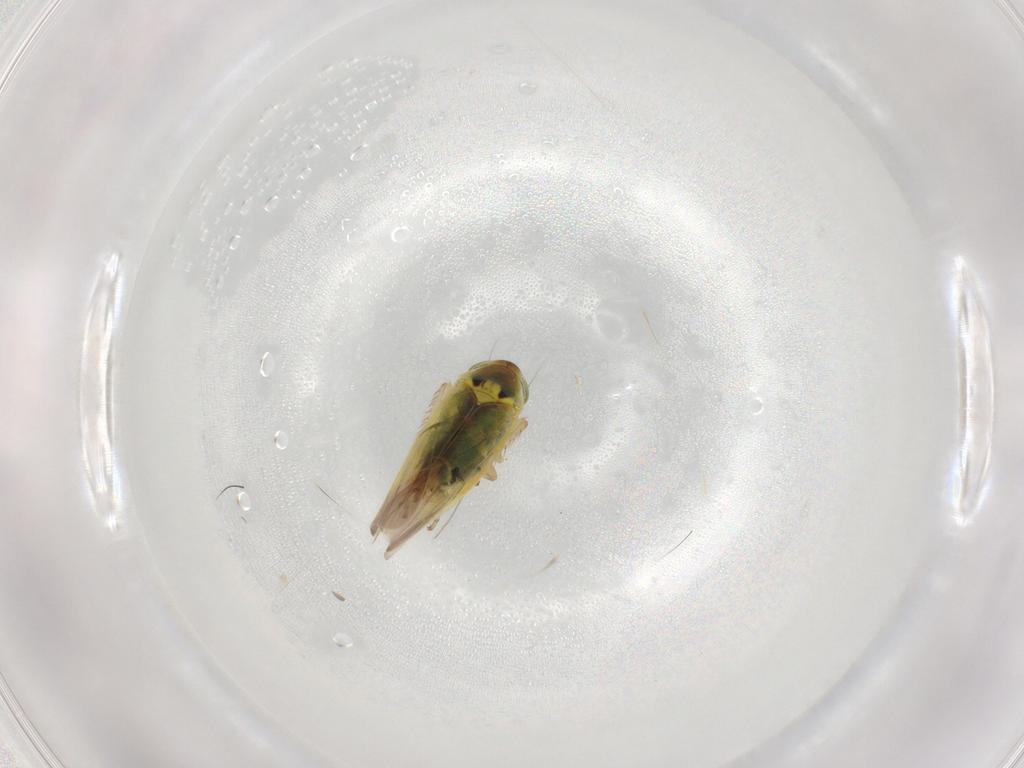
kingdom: Animalia
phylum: Arthropoda
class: Insecta
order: Hemiptera
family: Cicadellidae
